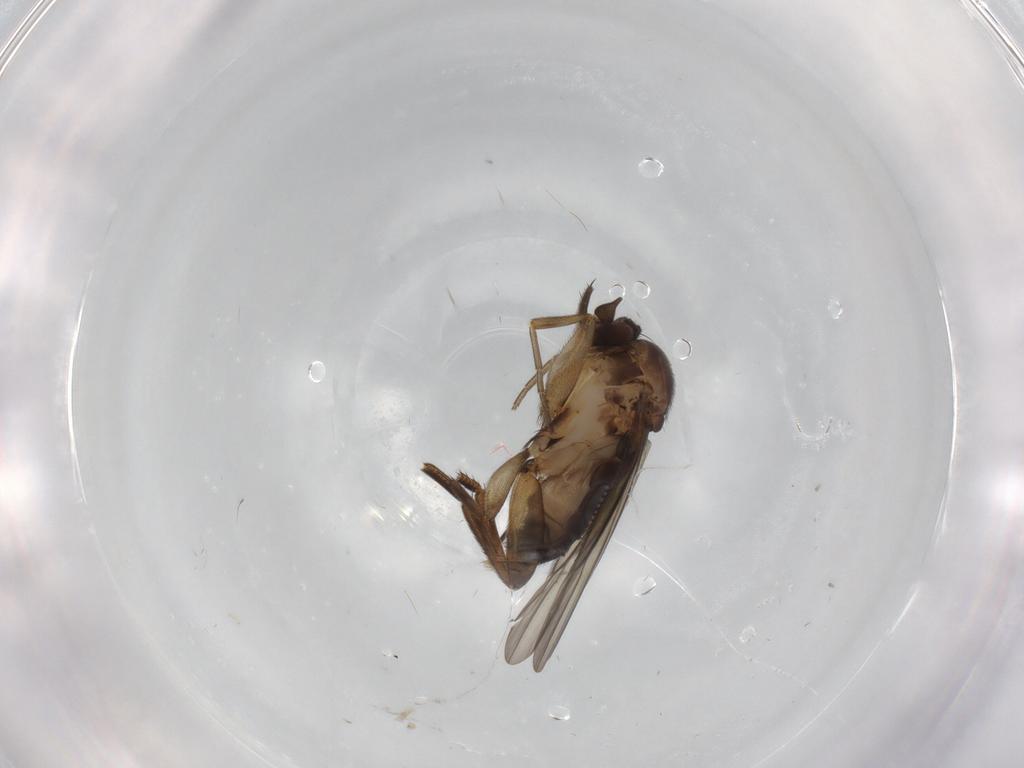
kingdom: Animalia
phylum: Arthropoda
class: Insecta
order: Diptera
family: Phoridae
